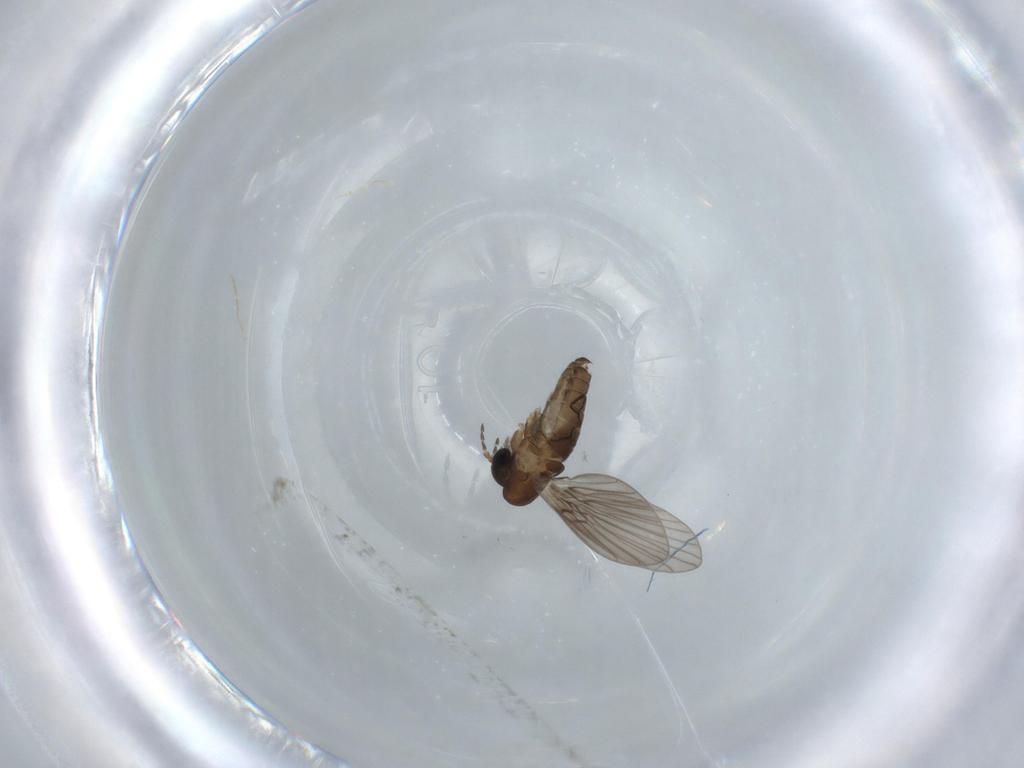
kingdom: Animalia
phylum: Arthropoda
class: Insecta
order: Diptera
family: Psychodidae
